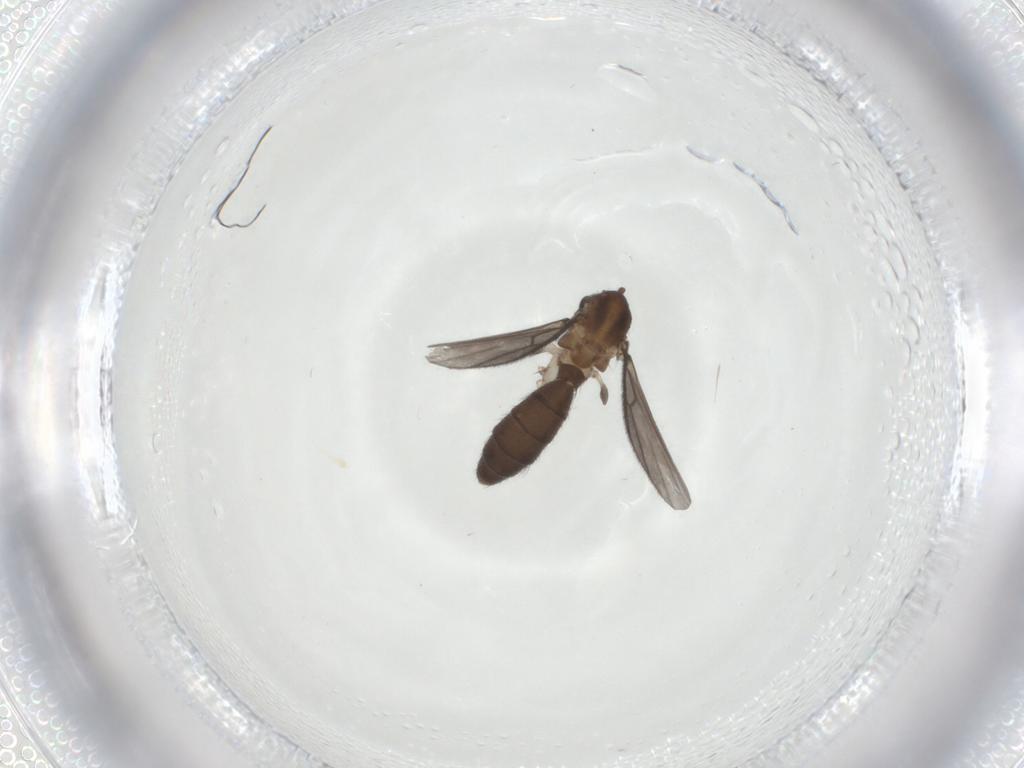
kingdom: Animalia
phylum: Arthropoda
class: Insecta
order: Diptera
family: Mycetophilidae
